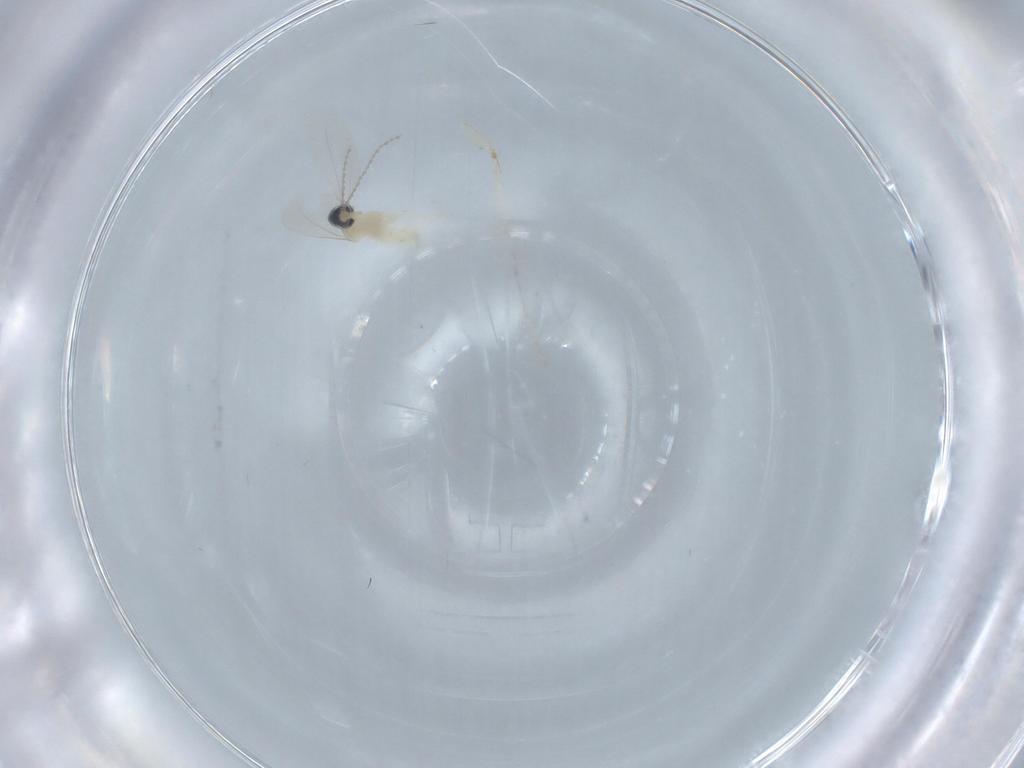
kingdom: Animalia
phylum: Arthropoda
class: Insecta
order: Diptera
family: Cecidomyiidae
